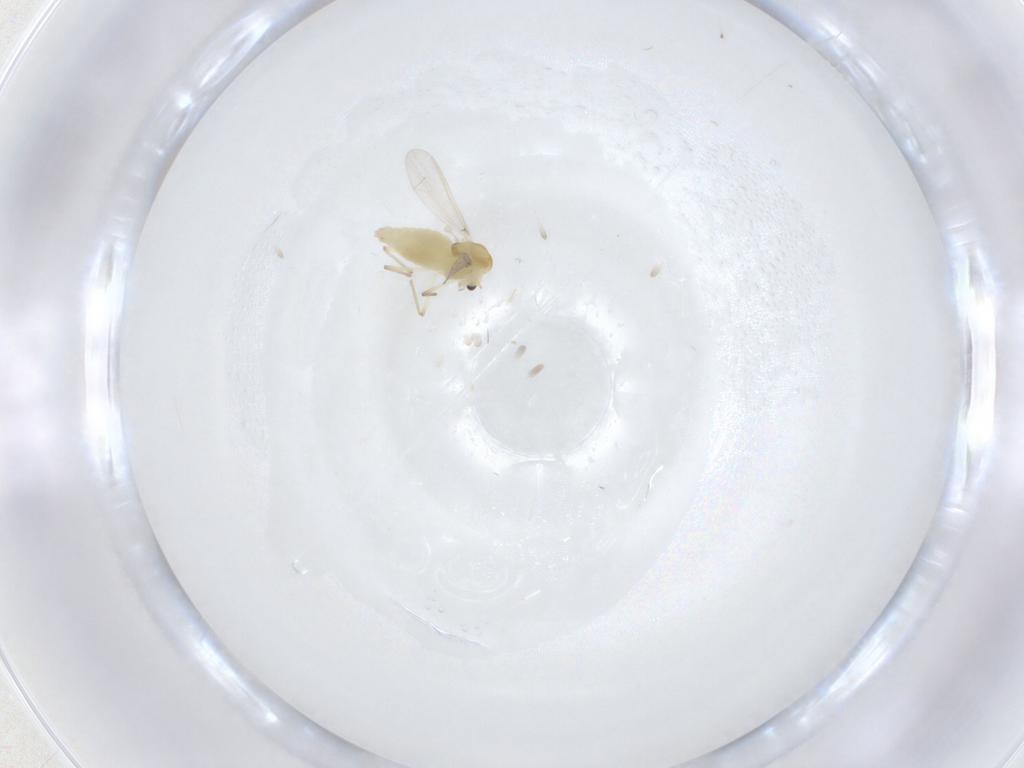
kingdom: Animalia
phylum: Arthropoda
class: Insecta
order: Diptera
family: Chironomidae
